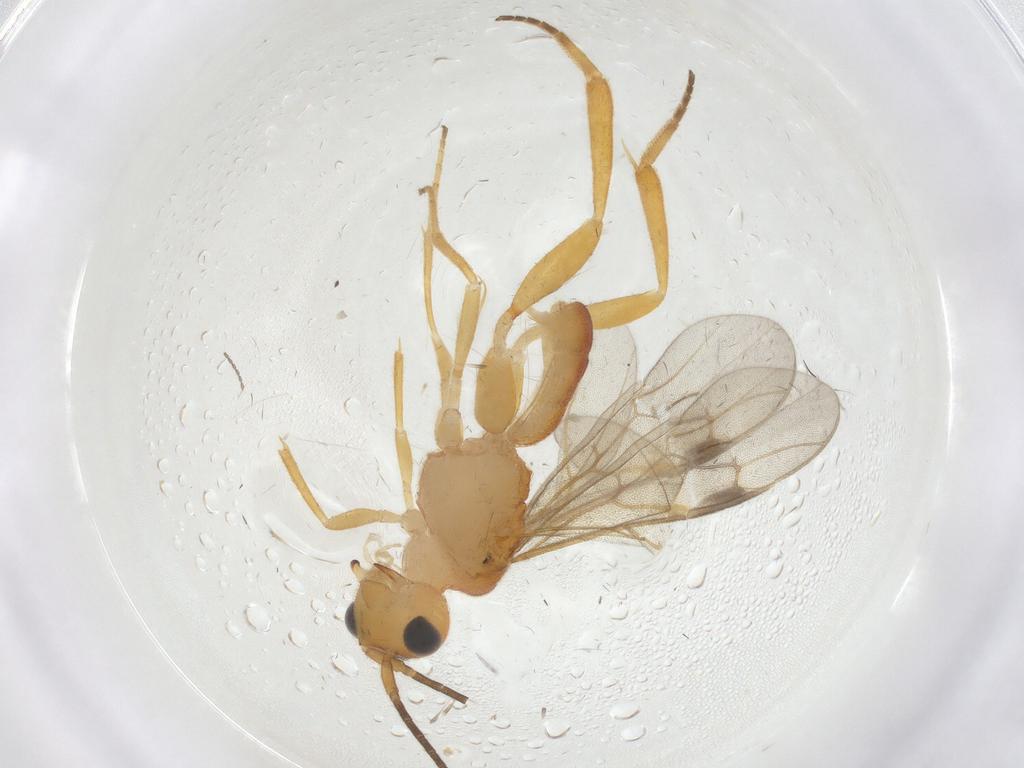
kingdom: Animalia
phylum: Arthropoda
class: Insecta
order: Hymenoptera
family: Braconidae
